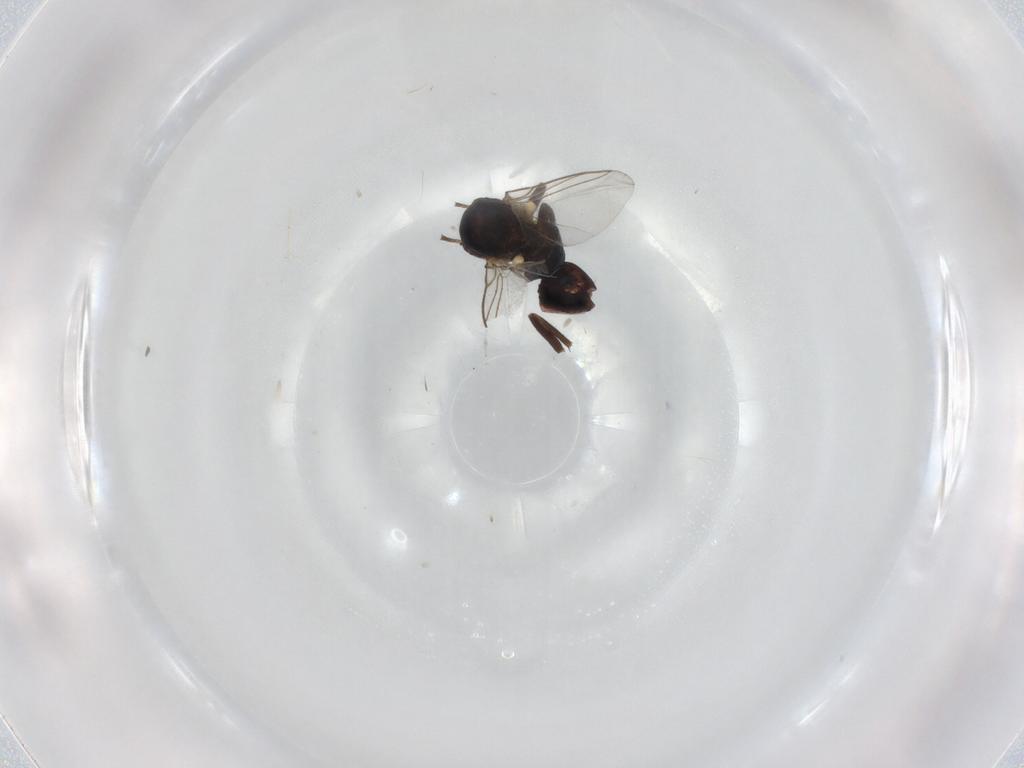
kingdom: Animalia
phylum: Arthropoda
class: Insecta
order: Diptera
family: Agromyzidae
